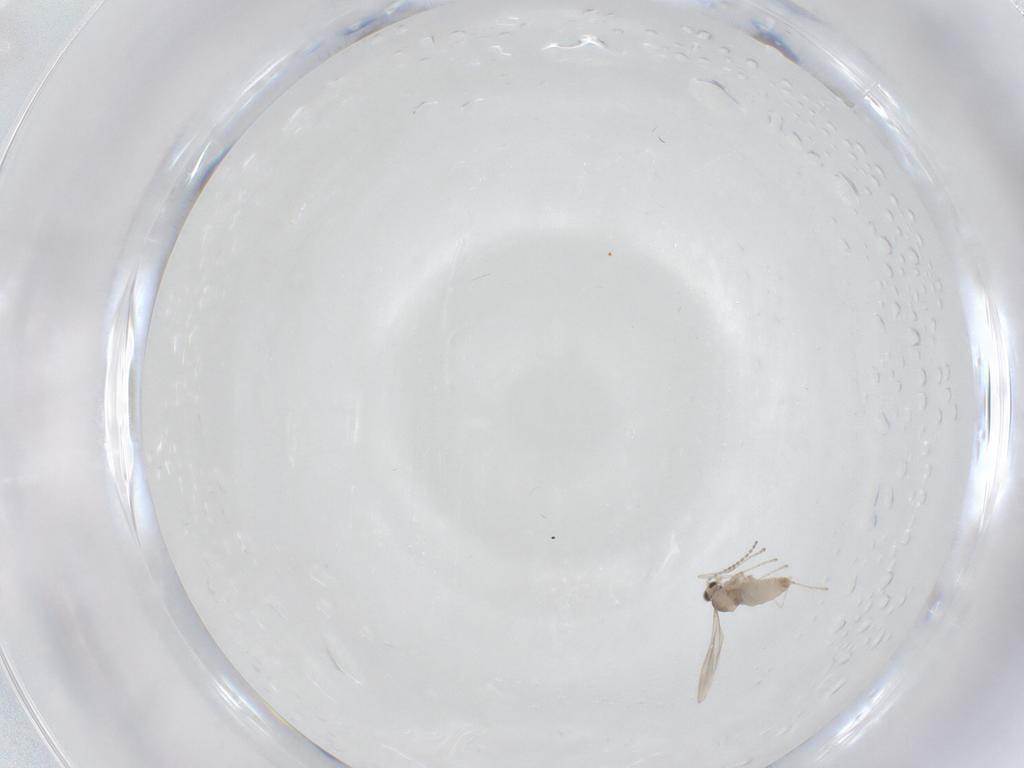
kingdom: Animalia
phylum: Arthropoda
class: Insecta
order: Diptera
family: Cecidomyiidae
